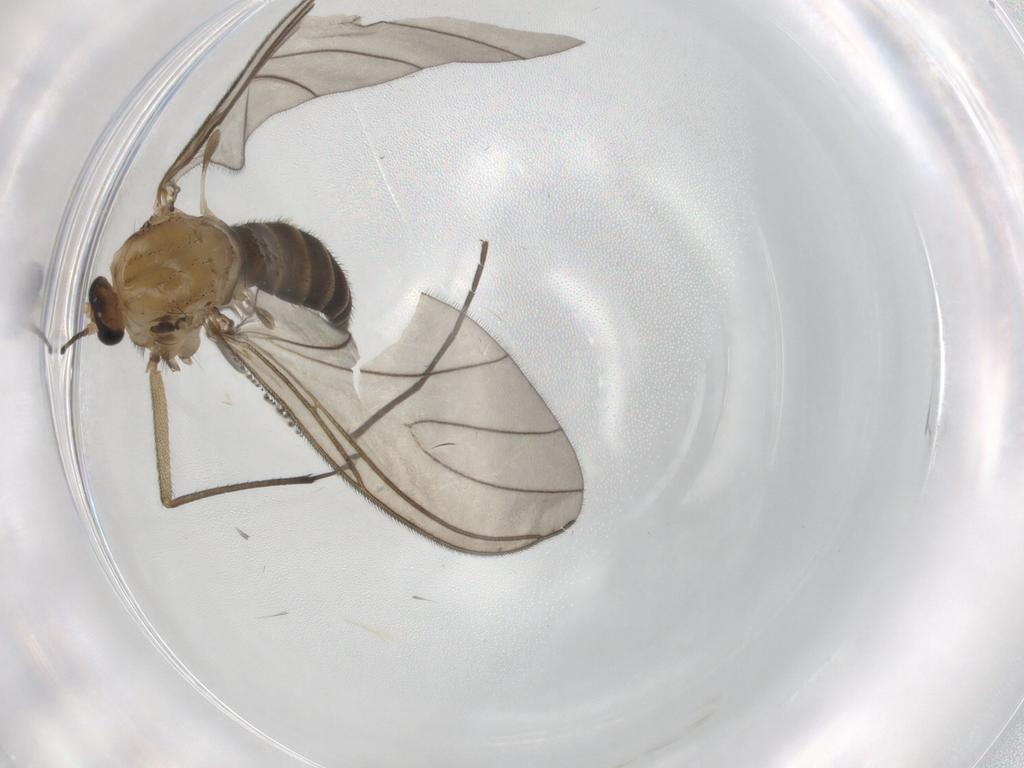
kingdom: Animalia
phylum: Arthropoda
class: Insecta
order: Diptera
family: Sciaridae
